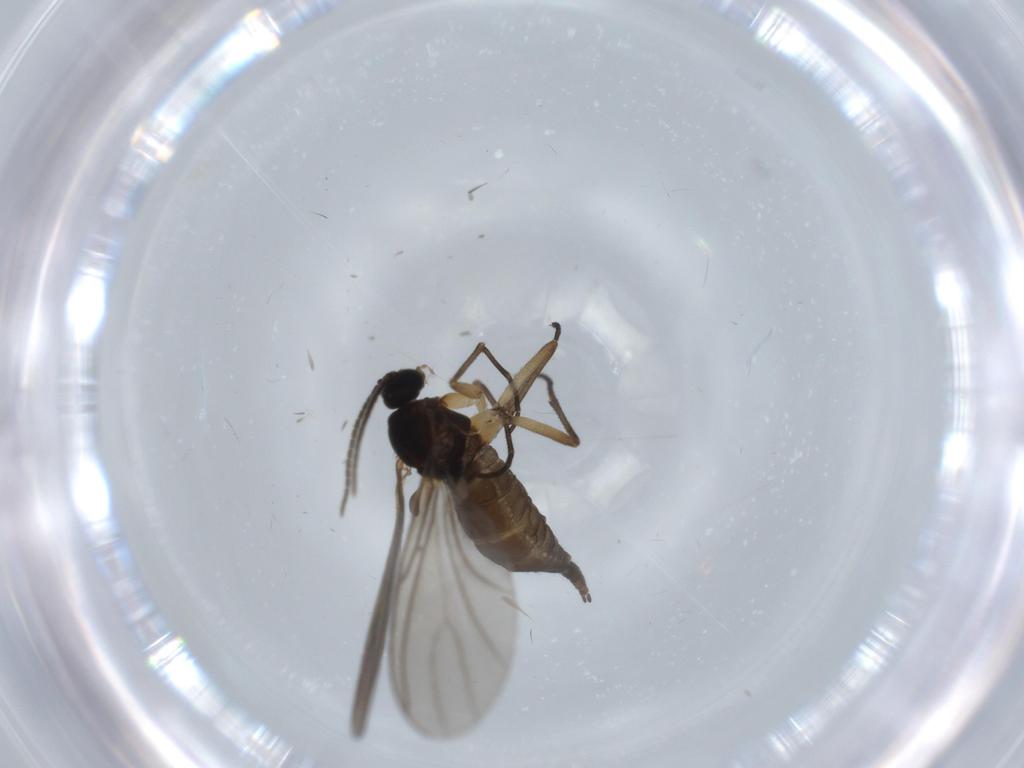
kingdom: Animalia
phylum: Arthropoda
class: Insecta
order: Diptera
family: Sciaridae
